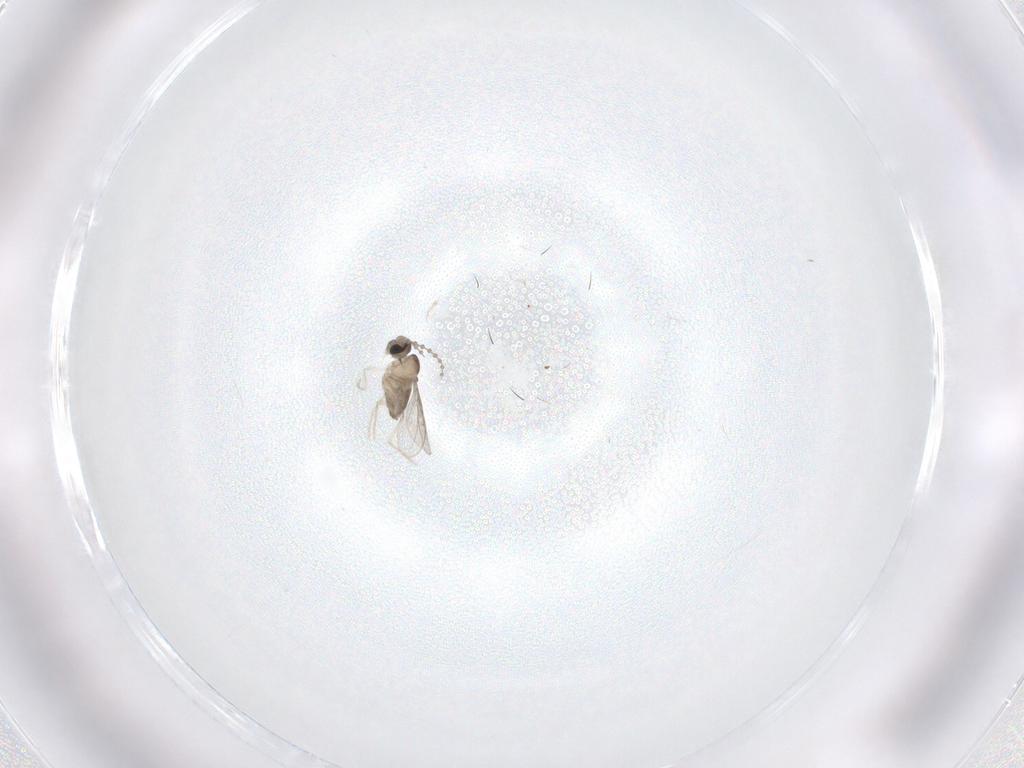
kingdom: Animalia
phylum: Arthropoda
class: Insecta
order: Diptera
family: Cecidomyiidae
